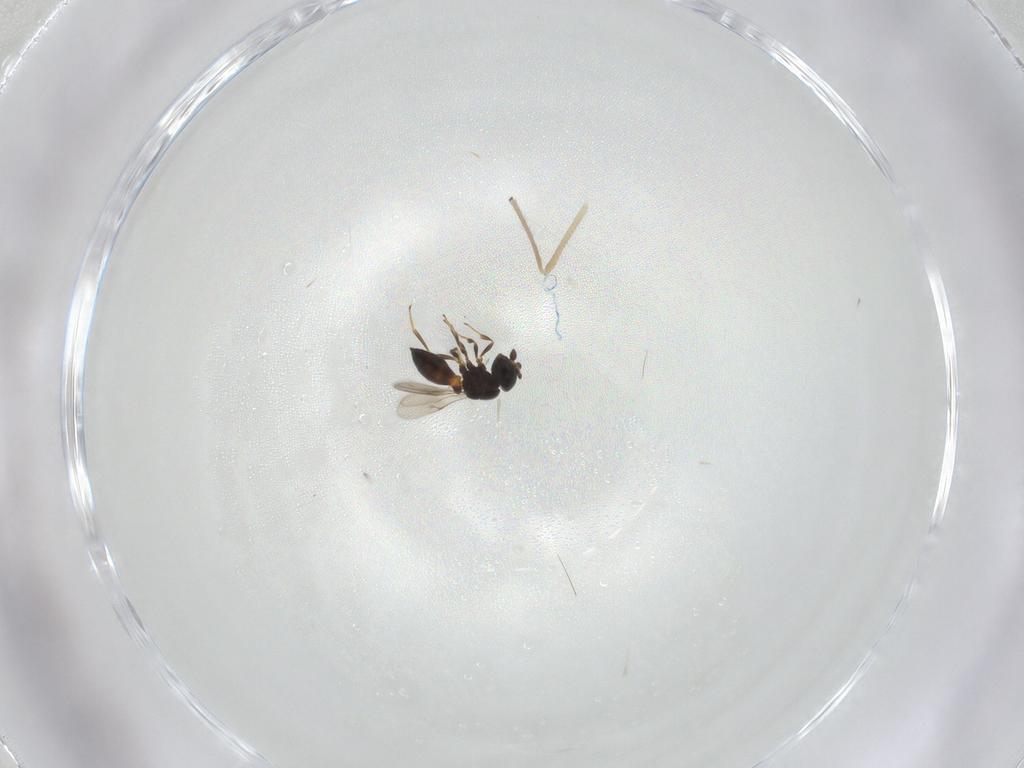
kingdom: Animalia
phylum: Arthropoda
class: Insecta
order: Hymenoptera
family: Scelionidae
